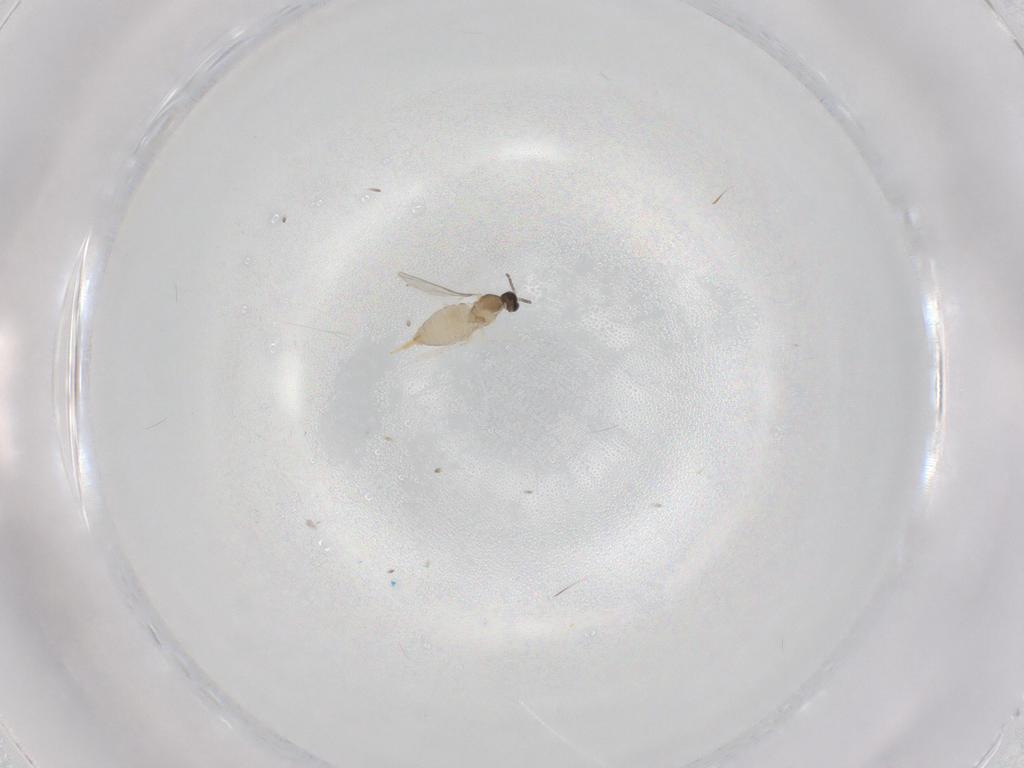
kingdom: Animalia
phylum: Arthropoda
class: Insecta
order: Diptera
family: Cecidomyiidae
